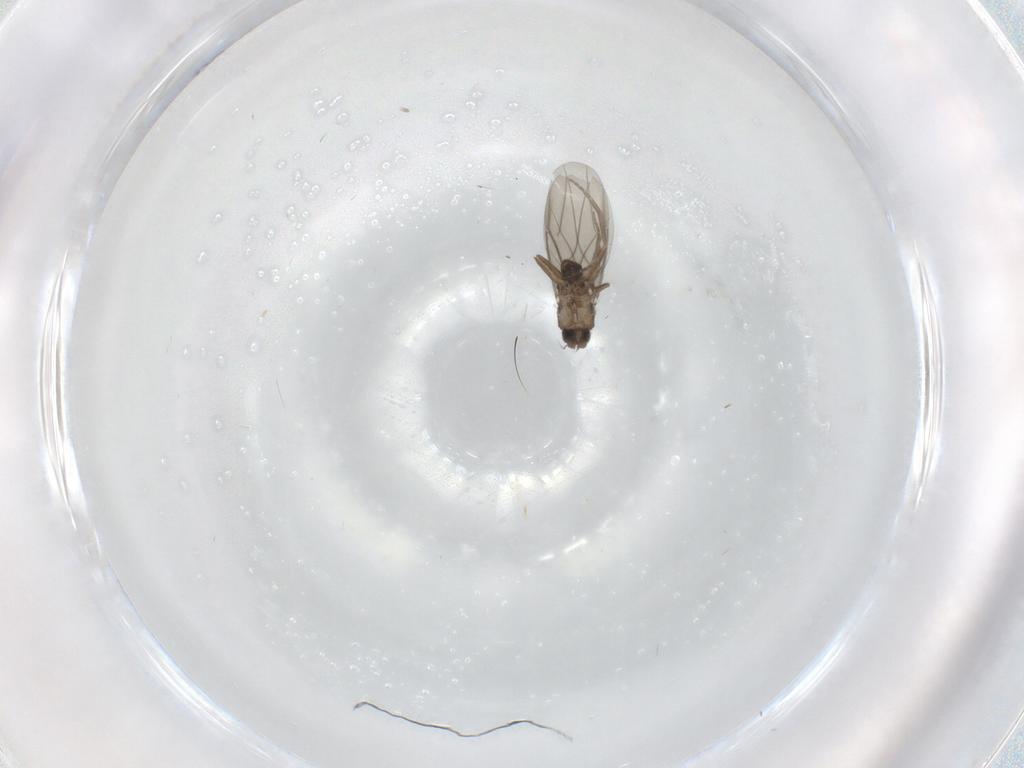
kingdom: Animalia
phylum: Arthropoda
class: Insecta
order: Diptera
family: Phoridae
